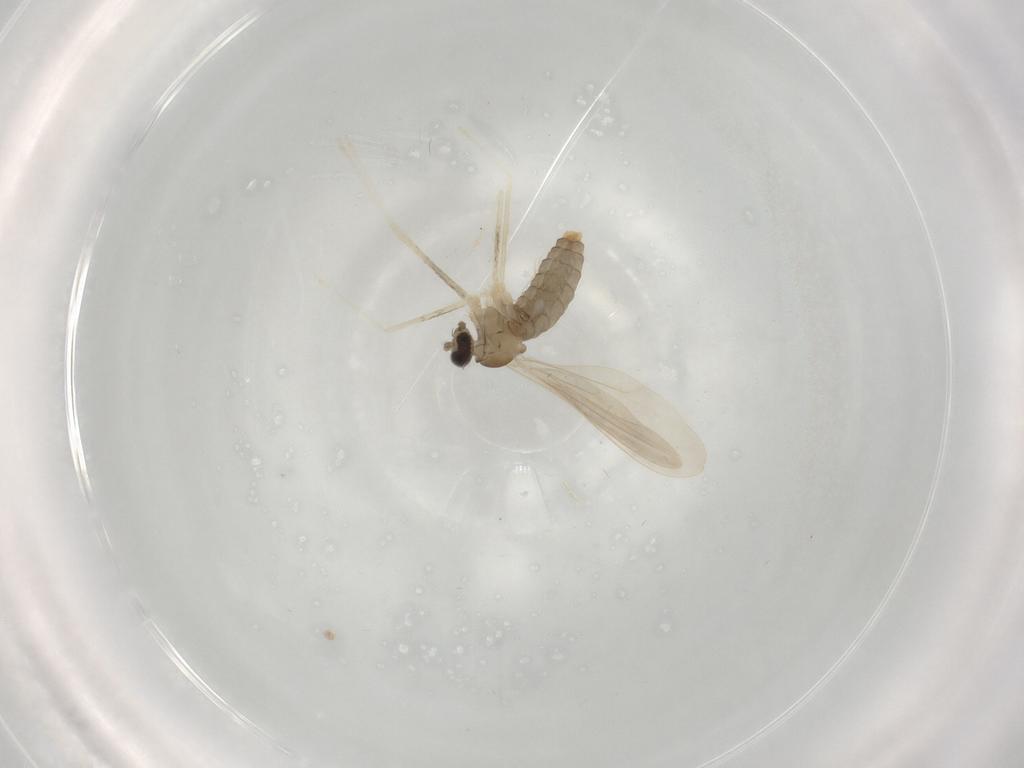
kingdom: Animalia
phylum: Arthropoda
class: Insecta
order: Diptera
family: Cecidomyiidae
